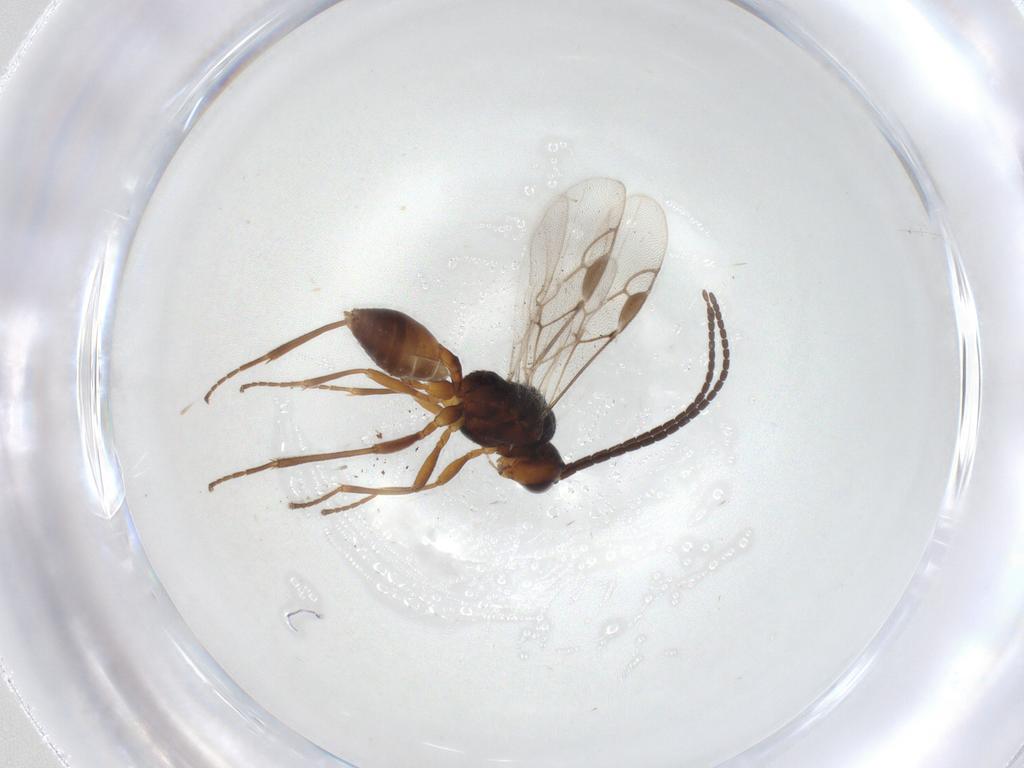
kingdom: Animalia
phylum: Arthropoda
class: Insecta
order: Hymenoptera
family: Braconidae
